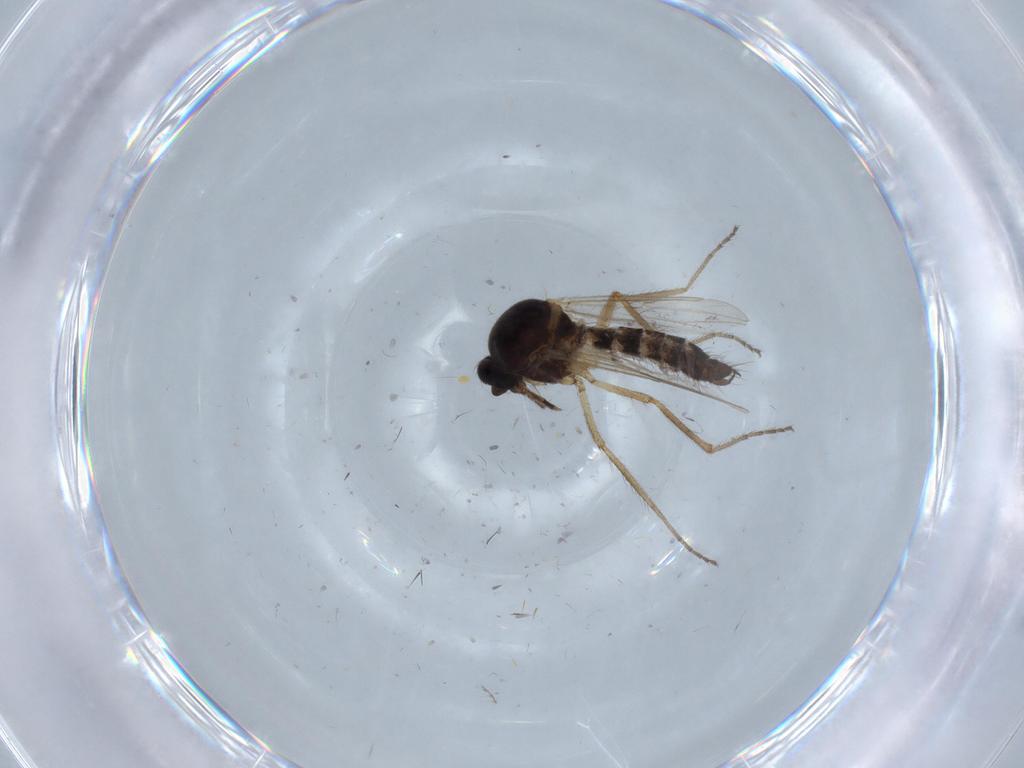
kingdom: Animalia
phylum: Arthropoda
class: Insecta
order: Diptera
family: Ceratopogonidae
